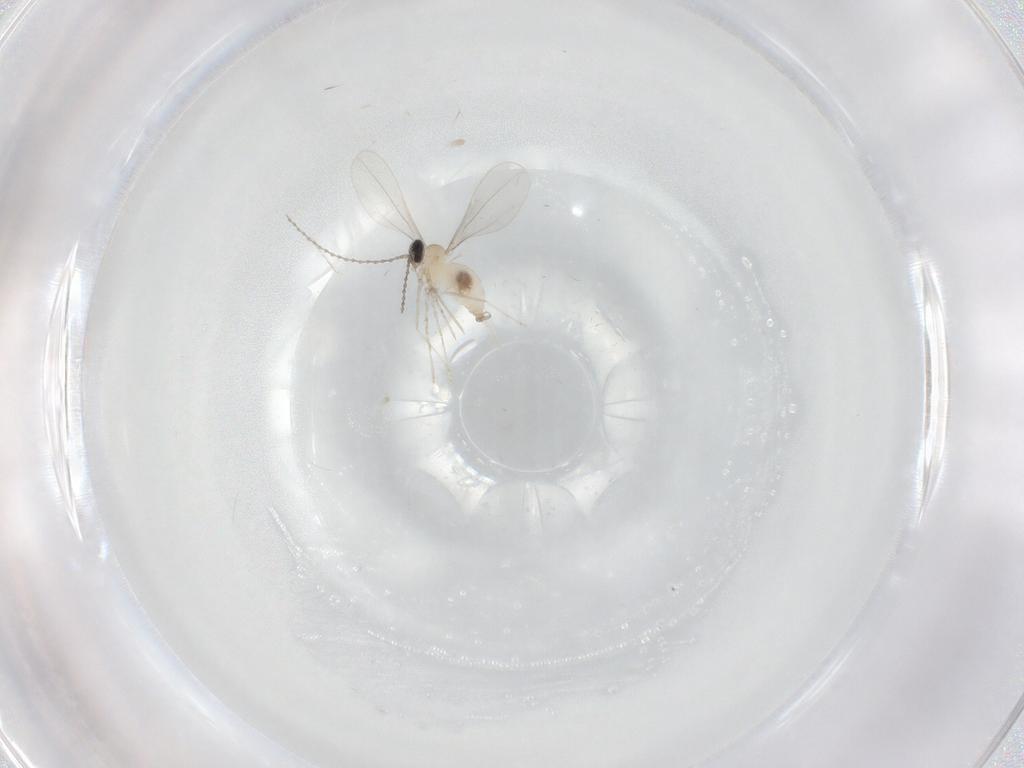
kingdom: Animalia
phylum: Arthropoda
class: Insecta
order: Diptera
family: Cecidomyiidae
